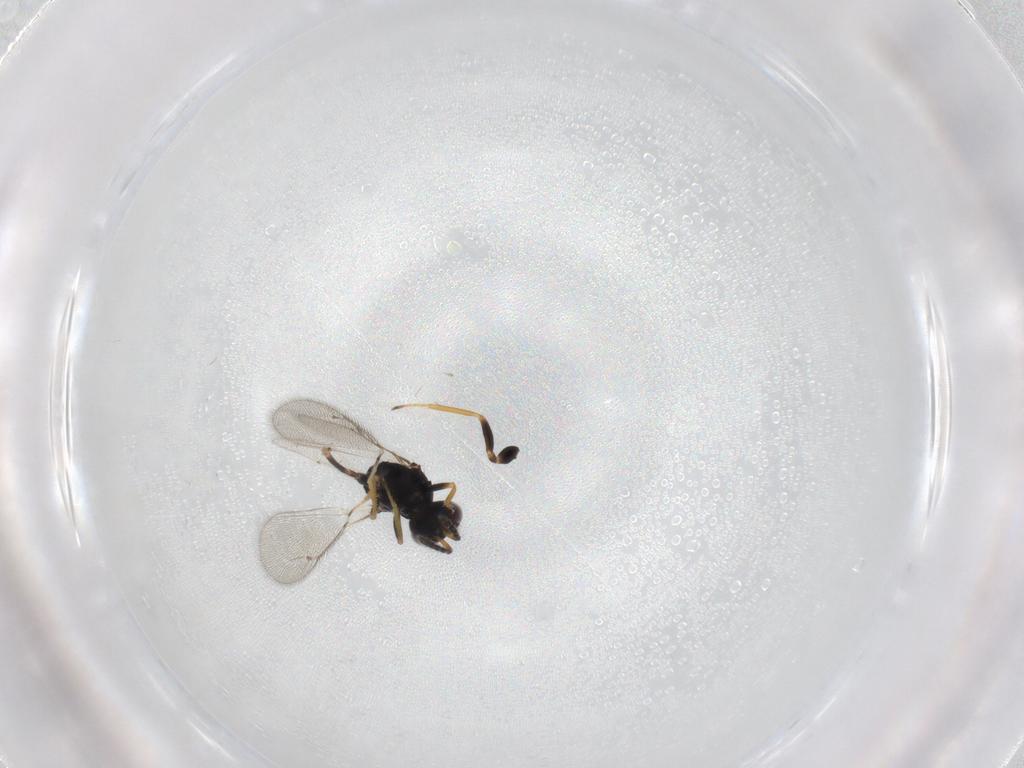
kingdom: Animalia
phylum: Arthropoda
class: Insecta
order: Hymenoptera
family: Eulophidae
